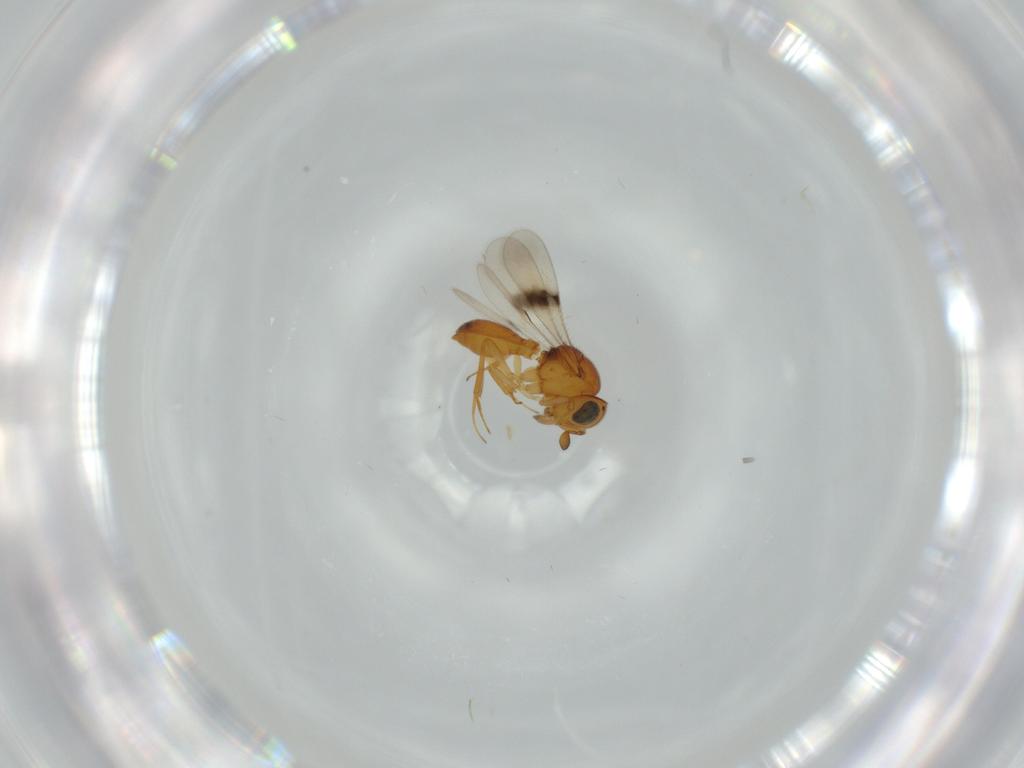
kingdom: Animalia
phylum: Arthropoda
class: Insecta
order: Hymenoptera
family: Scelionidae
